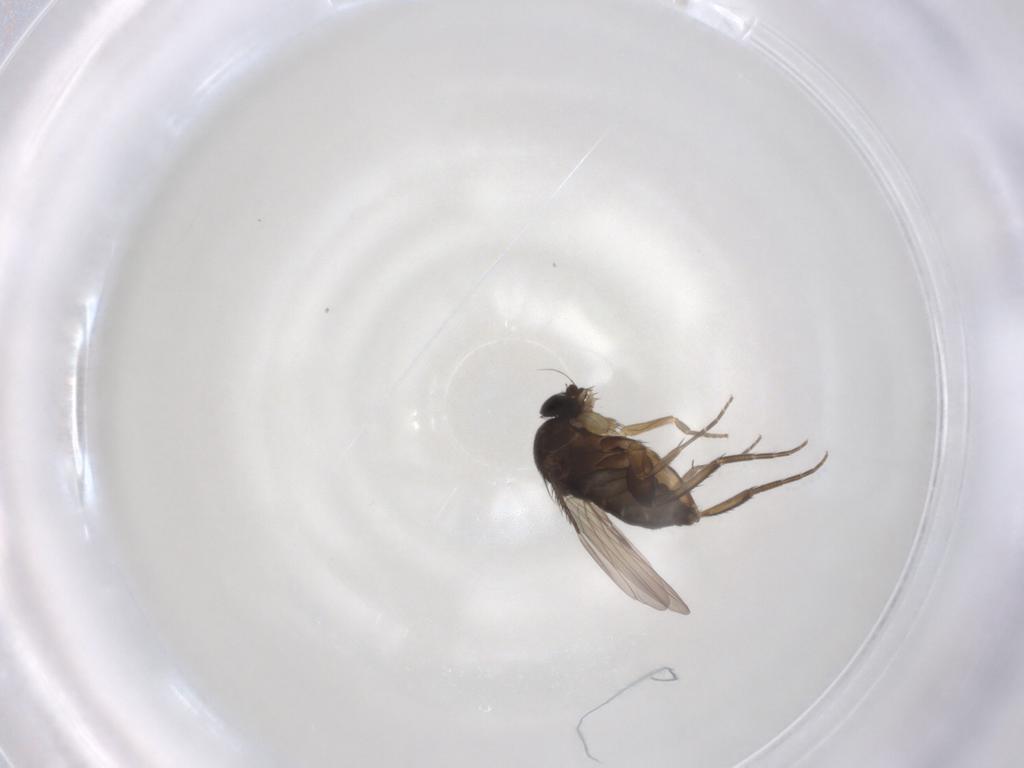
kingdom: Animalia
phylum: Arthropoda
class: Insecta
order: Diptera
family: Phoridae
